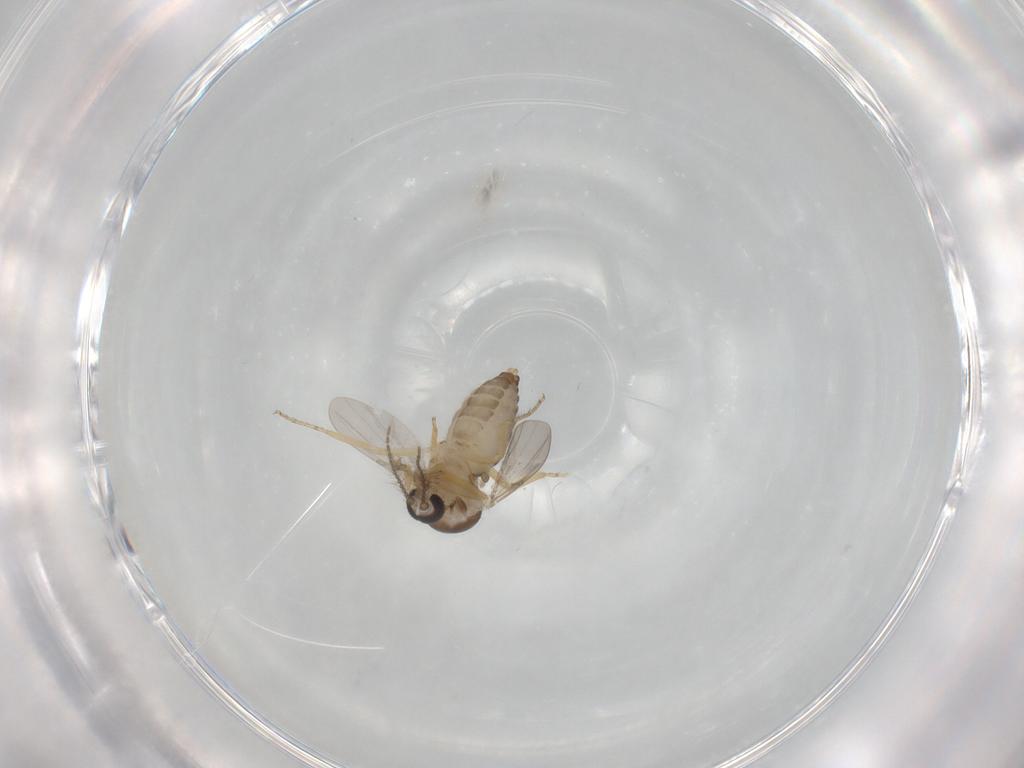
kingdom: Animalia
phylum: Arthropoda
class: Insecta
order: Diptera
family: Ceratopogonidae
